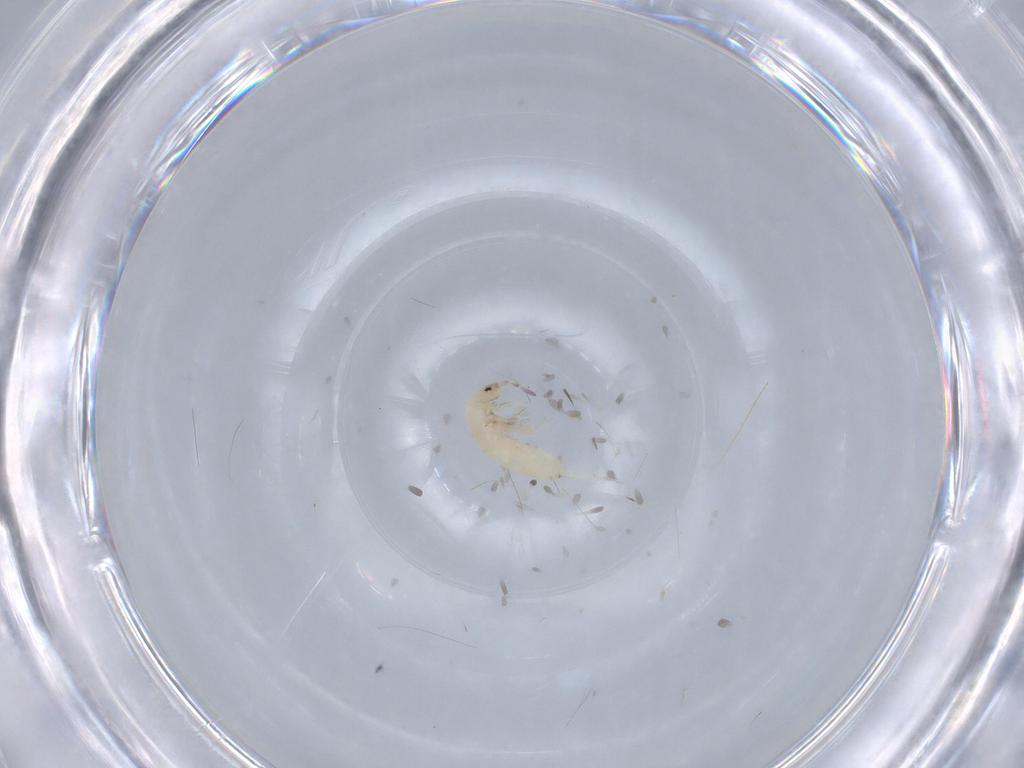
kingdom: Animalia
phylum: Arthropoda
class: Collembola
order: Entomobryomorpha
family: Entomobryidae
